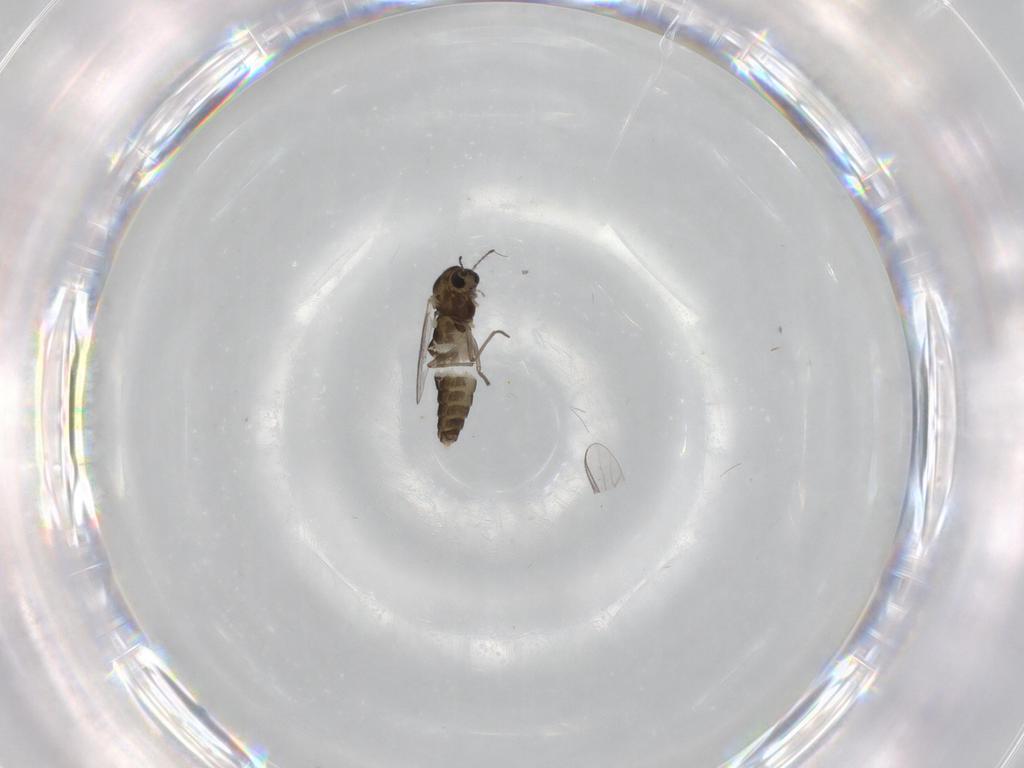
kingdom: Animalia
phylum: Arthropoda
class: Insecta
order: Diptera
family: Chironomidae
